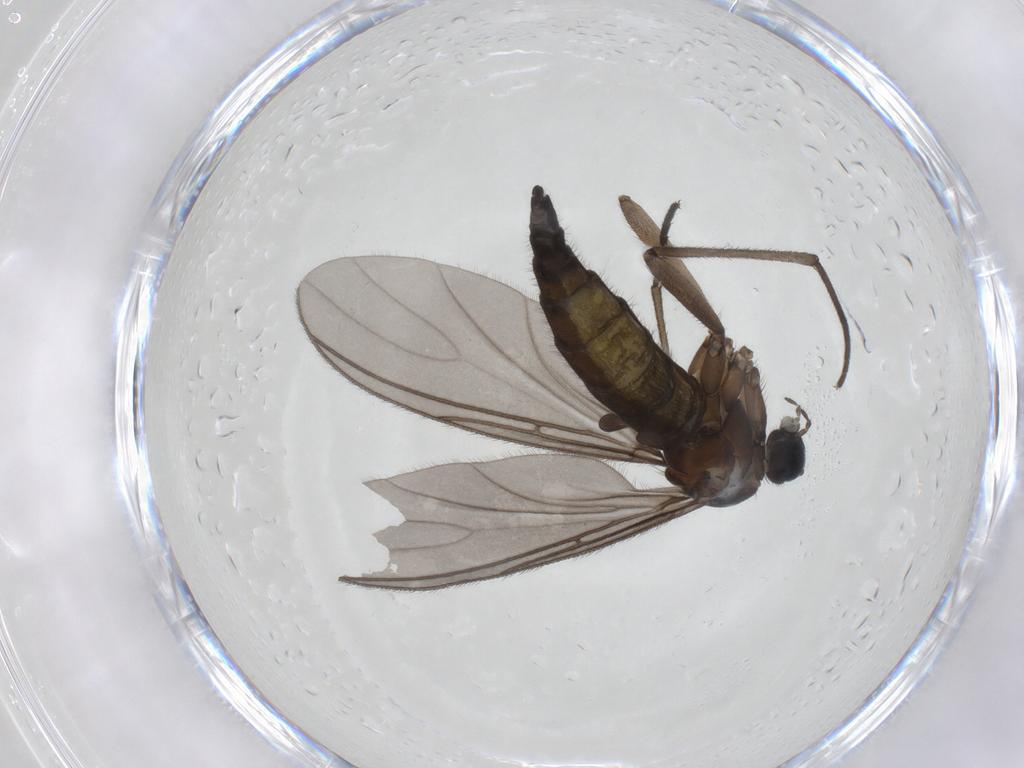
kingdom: Animalia
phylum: Arthropoda
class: Insecta
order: Diptera
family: Sciaridae
